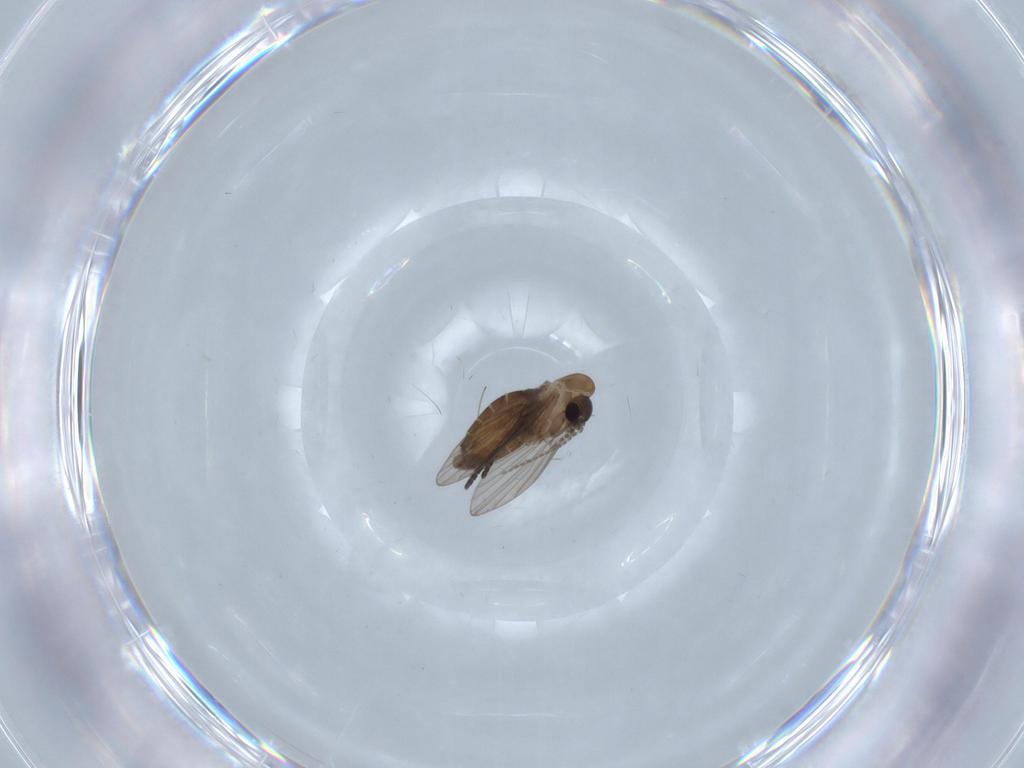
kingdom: Animalia
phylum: Arthropoda
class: Insecta
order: Diptera
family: Psychodidae
